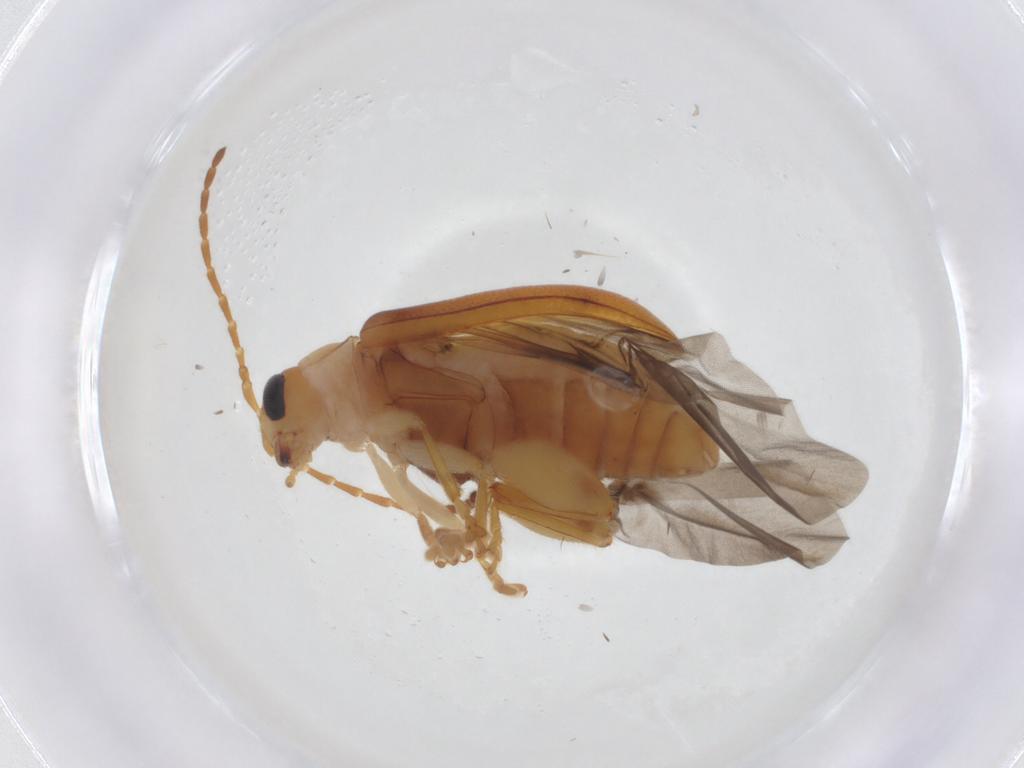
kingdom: Animalia
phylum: Arthropoda
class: Insecta
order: Coleoptera
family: Chrysomelidae
